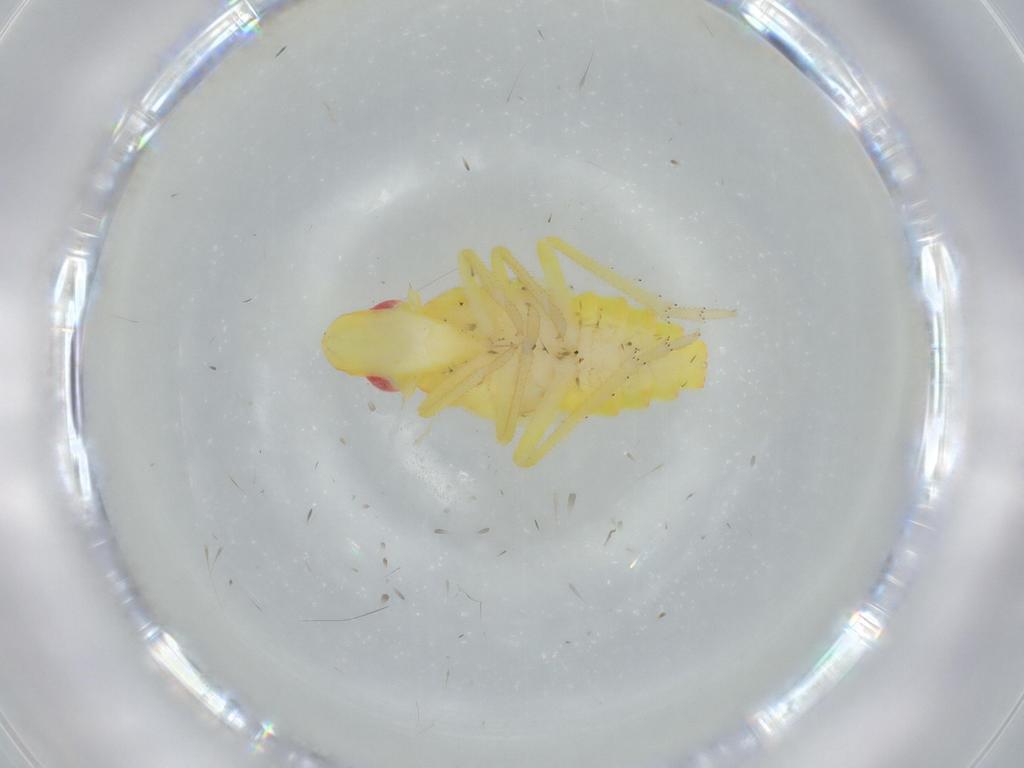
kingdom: Animalia
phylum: Arthropoda
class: Insecta
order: Hemiptera
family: Tropiduchidae
